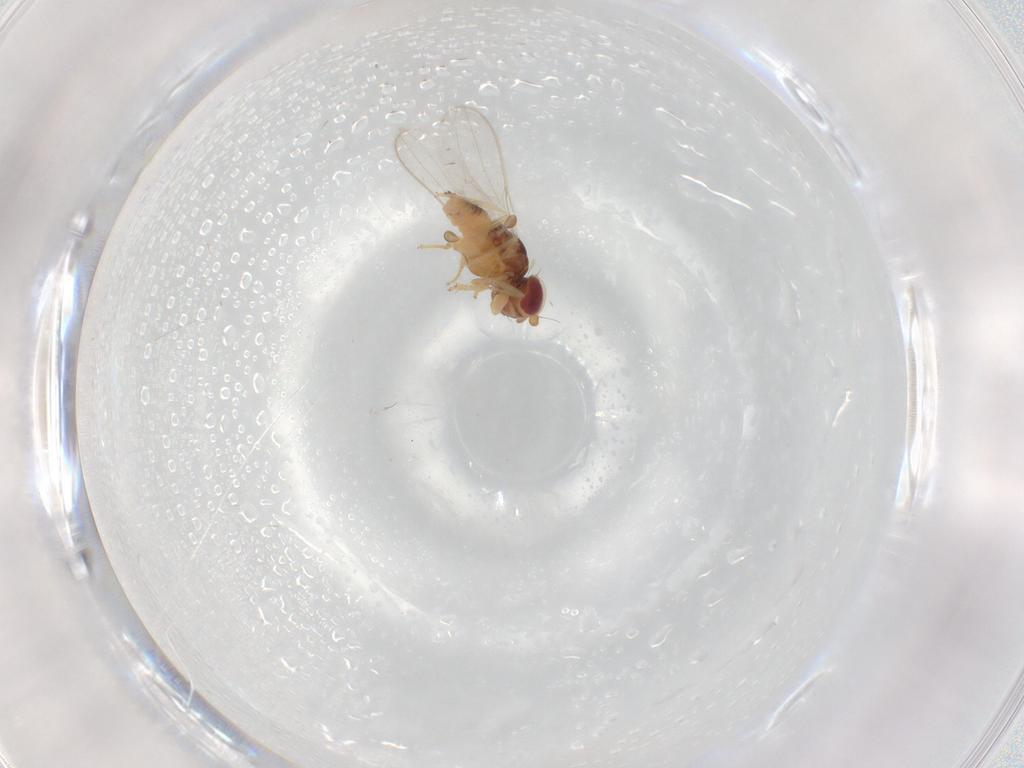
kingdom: Animalia
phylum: Arthropoda
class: Insecta
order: Diptera
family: Asteiidae
